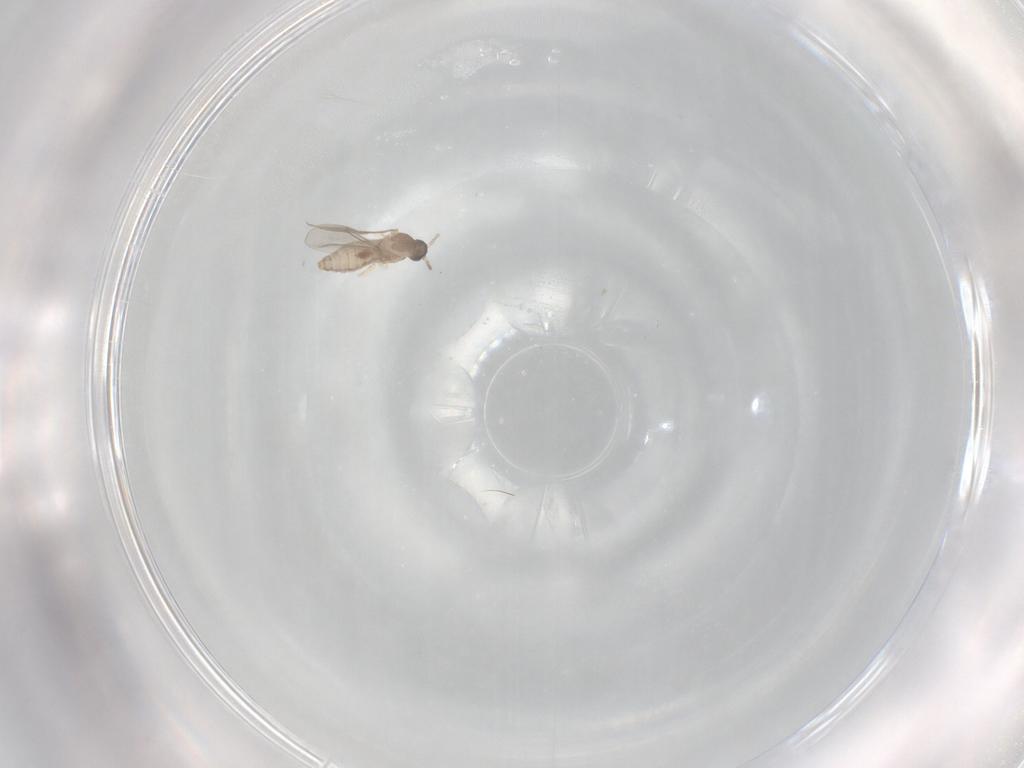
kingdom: Animalia
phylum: Arthropoda
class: Insecta
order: Diptera
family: Cecidomyiidae
